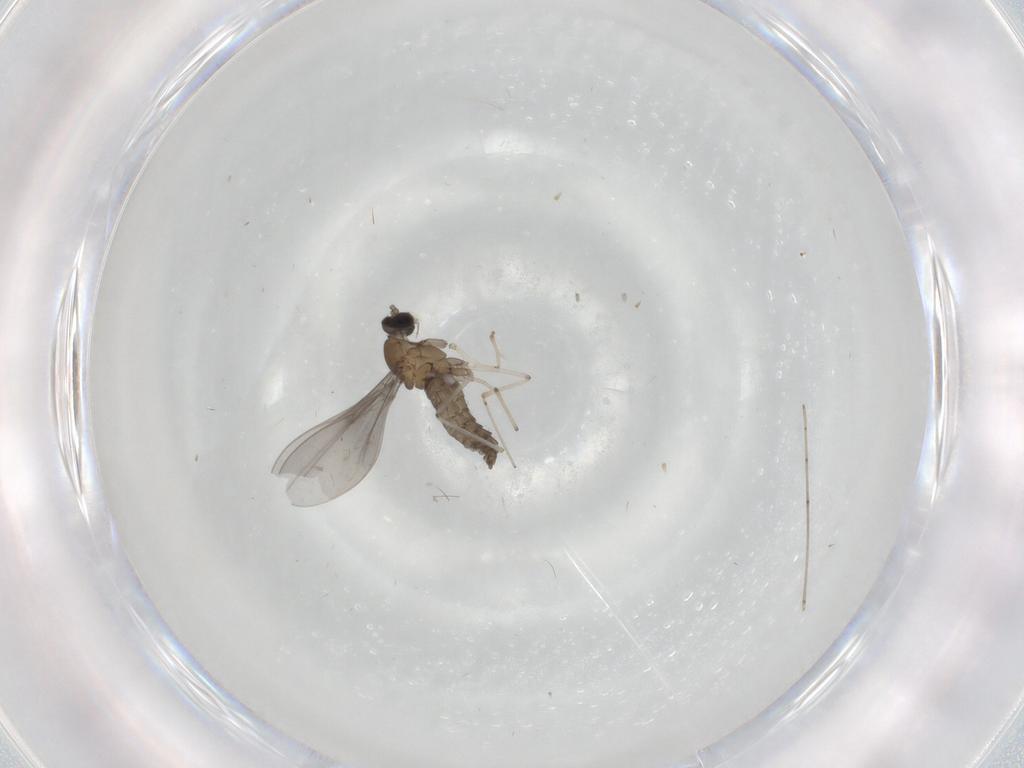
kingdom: Animalia
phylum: Arthropoda
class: Insecta
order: Diptera
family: Cecidomyiidae
